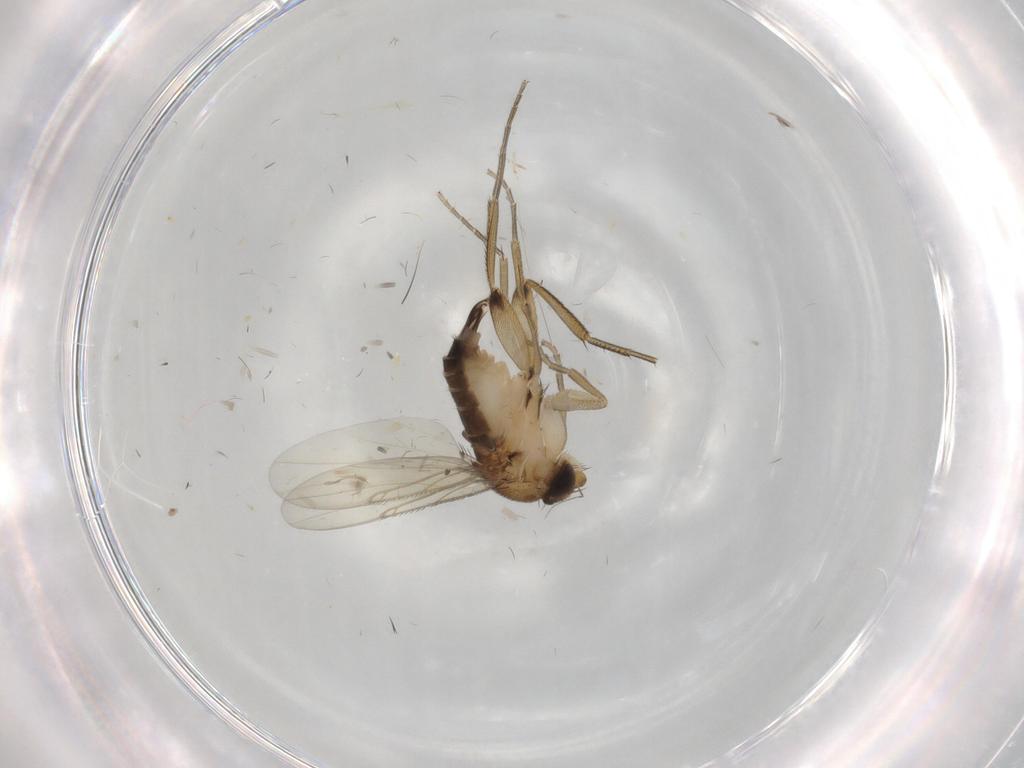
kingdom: Animalia
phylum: Arthropoda
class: Insecta
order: Diptera
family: Phoridae
